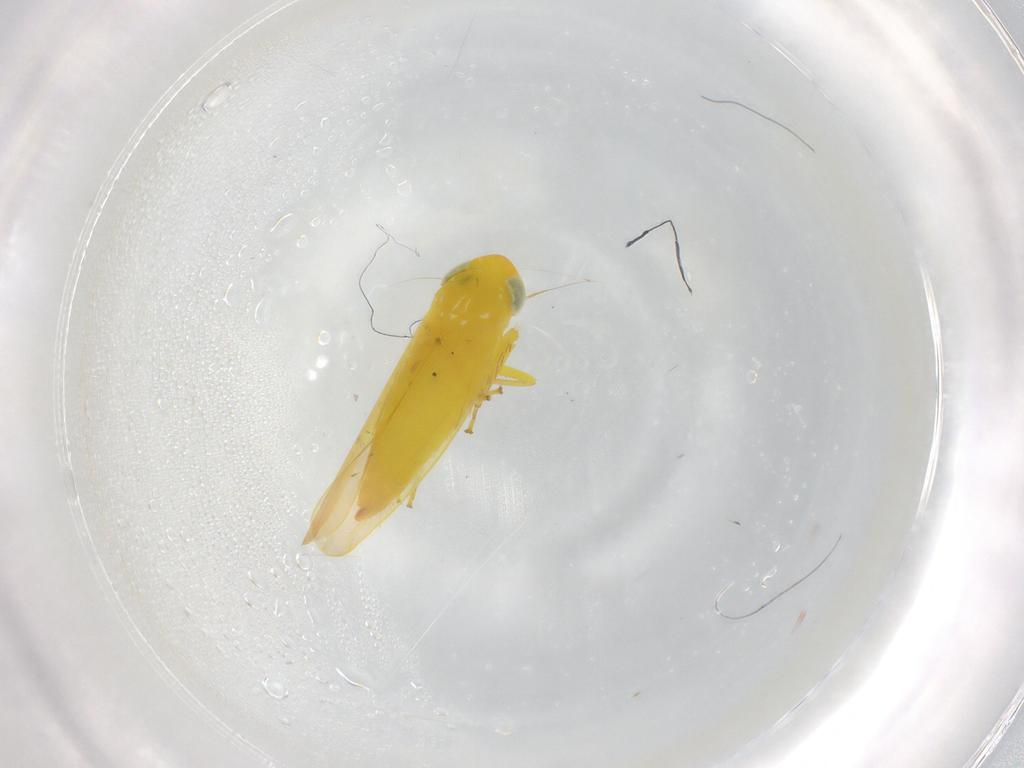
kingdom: Animalia
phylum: Arthropoda
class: Insecta
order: Hemiptera
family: Cicadellidae
